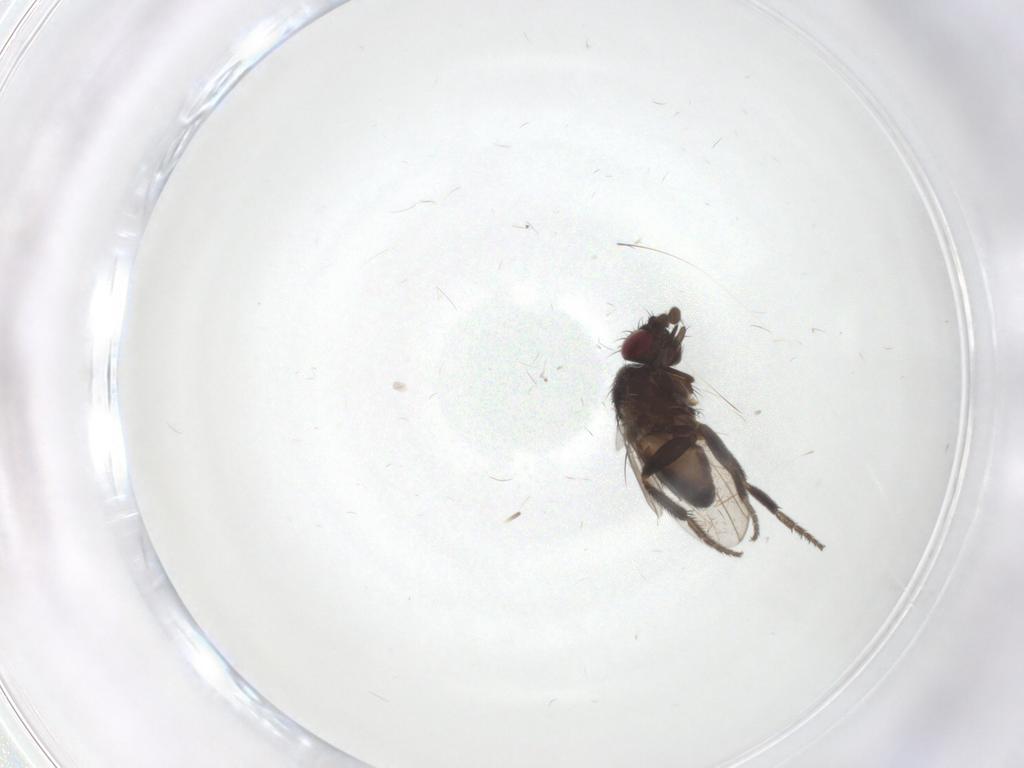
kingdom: Animalia
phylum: Arthropoda
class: Insecta
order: Diptera
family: Milichiidae
